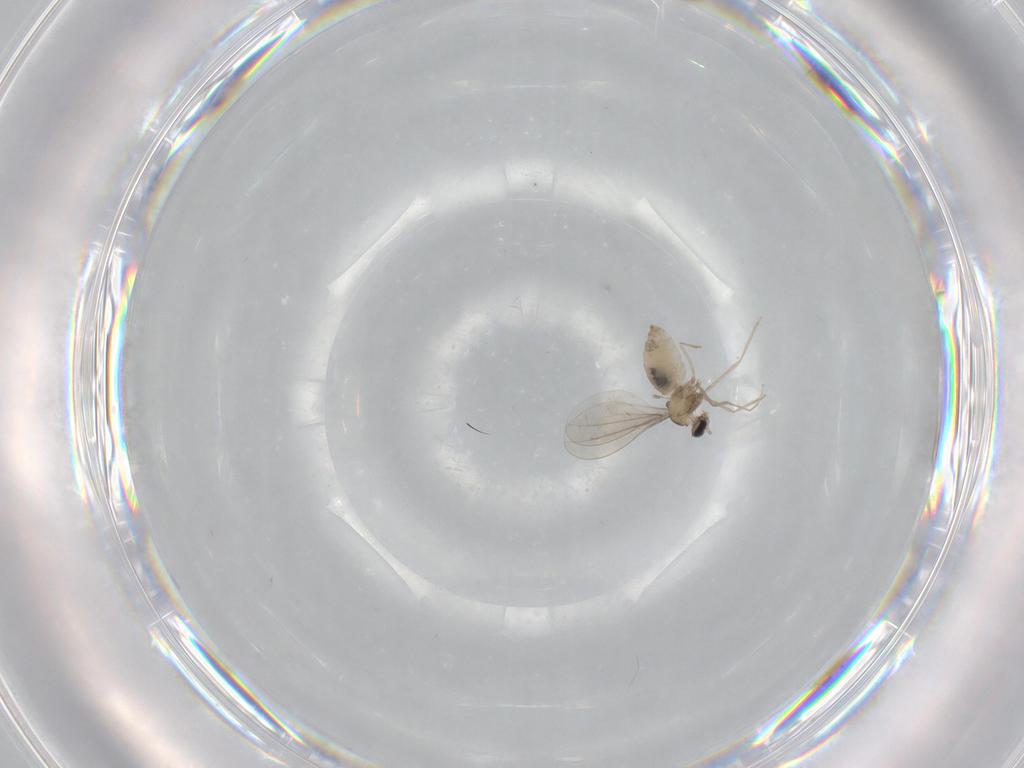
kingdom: Animalia
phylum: Arthropoda
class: Insecta
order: Diptera
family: Cecidomyiidae
